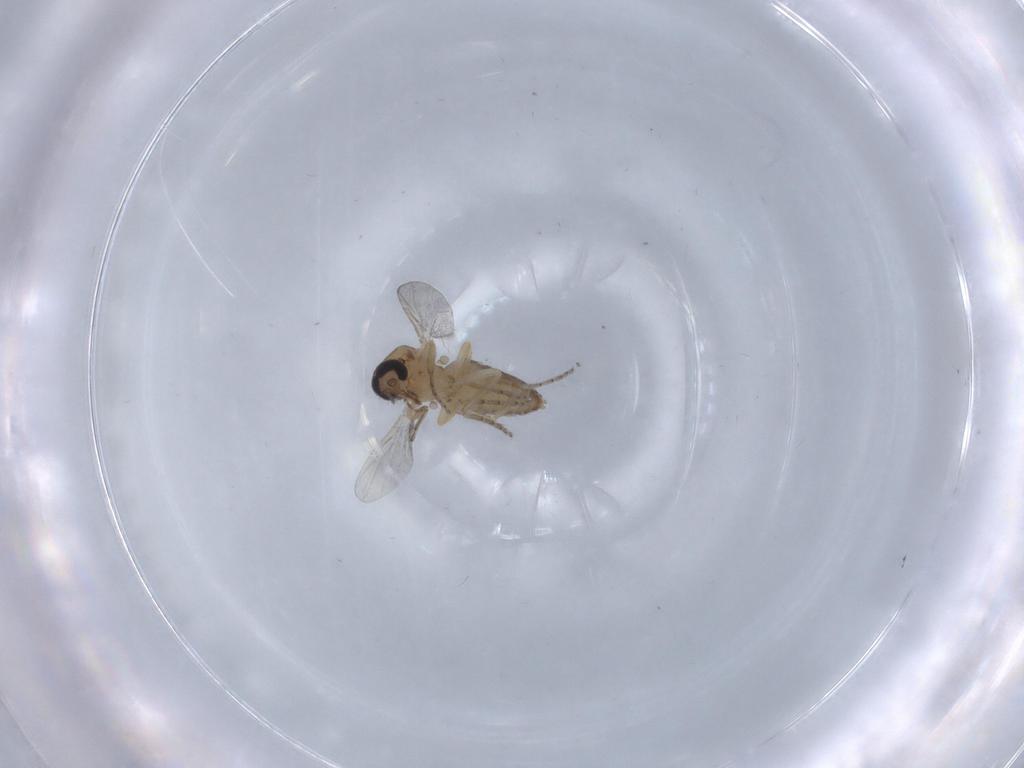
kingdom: Animalia
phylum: Arthropoda
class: Insecta
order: Diptera
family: Ceratopogonidae
